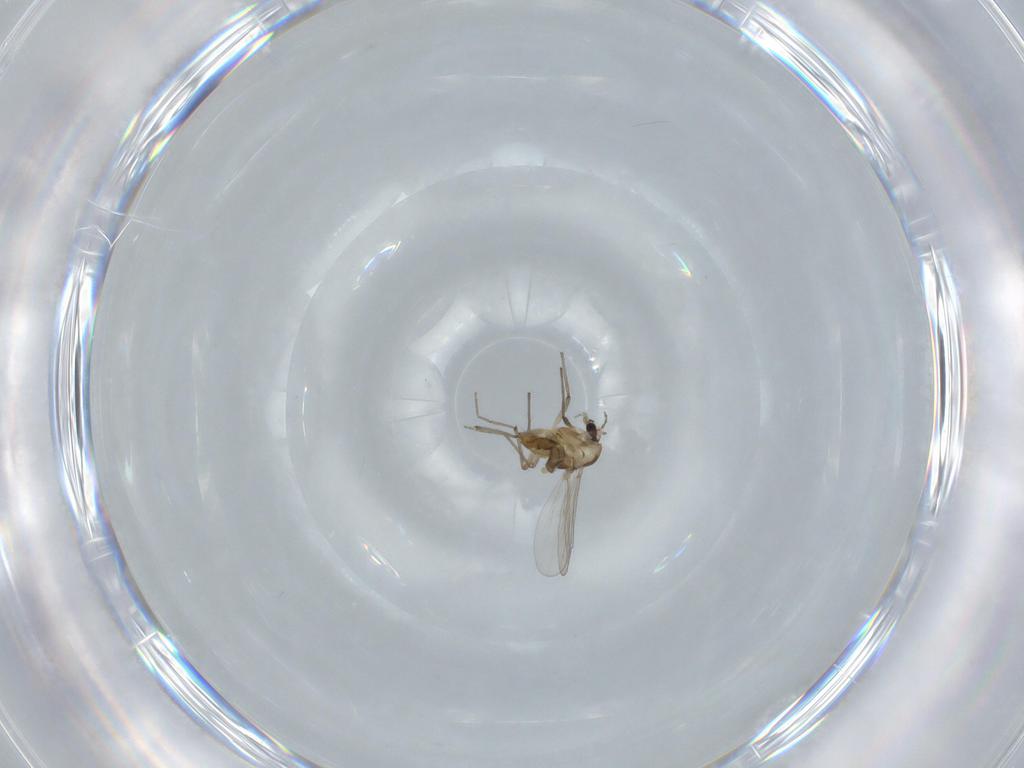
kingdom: Animalia
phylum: Arthropoda
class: Insecta
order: Diptera
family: Chironomidae
